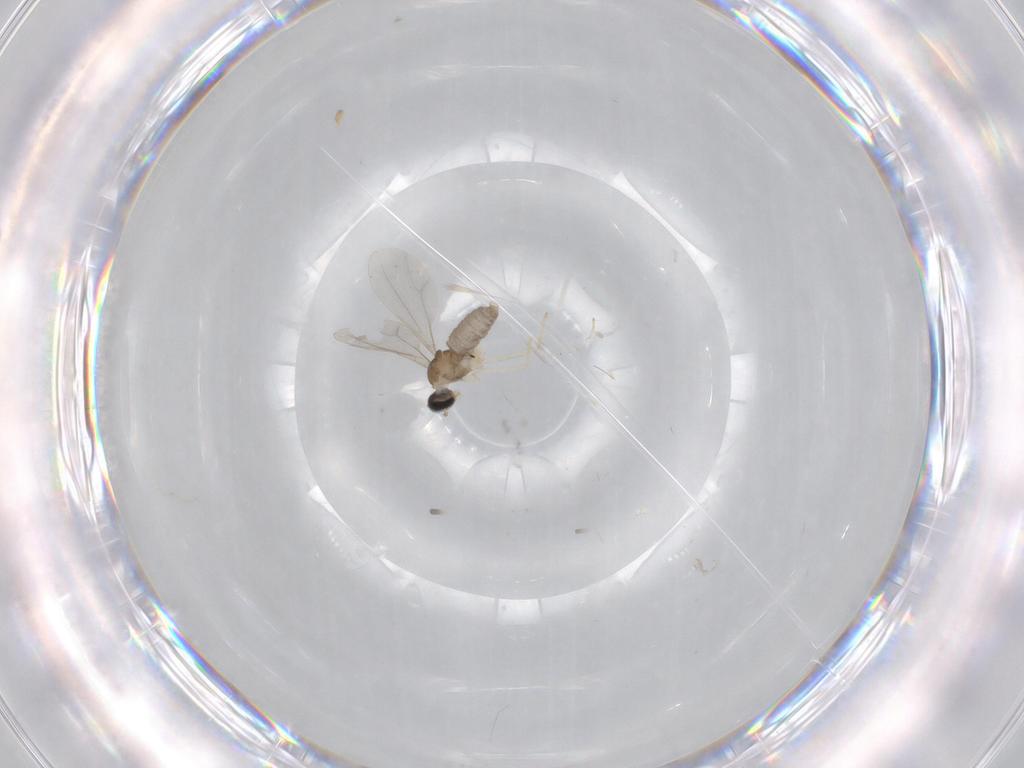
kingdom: Animalia
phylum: Arthropoda
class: Insecta
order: Diptera
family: Cecidomyiidae
